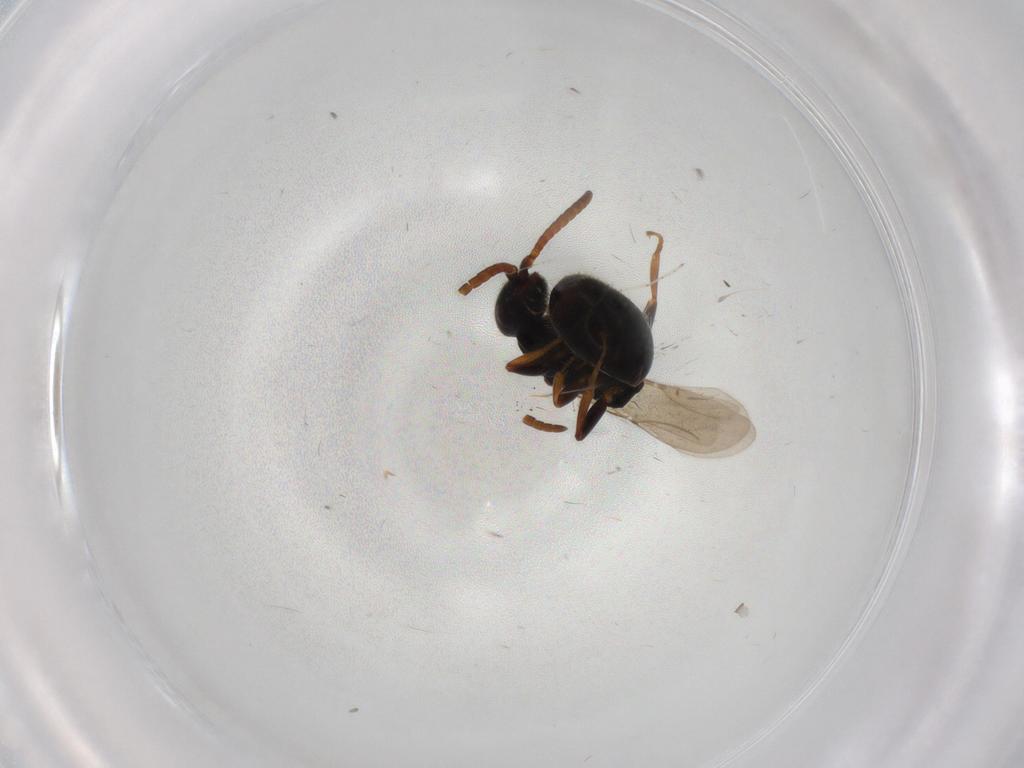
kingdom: Animalia
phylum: Arthropoda
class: Insecta
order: Hymenoptera
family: Bethylidae
